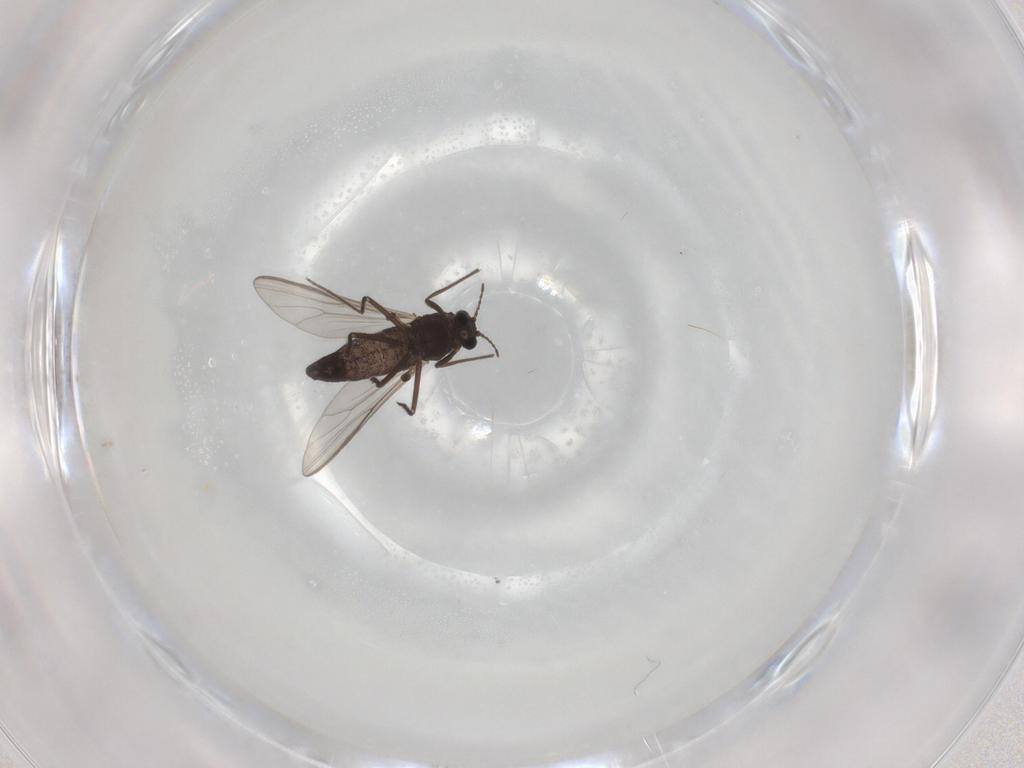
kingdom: Animalia
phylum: Arthropoda
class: Insecta
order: Diptera
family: Chironomidae
